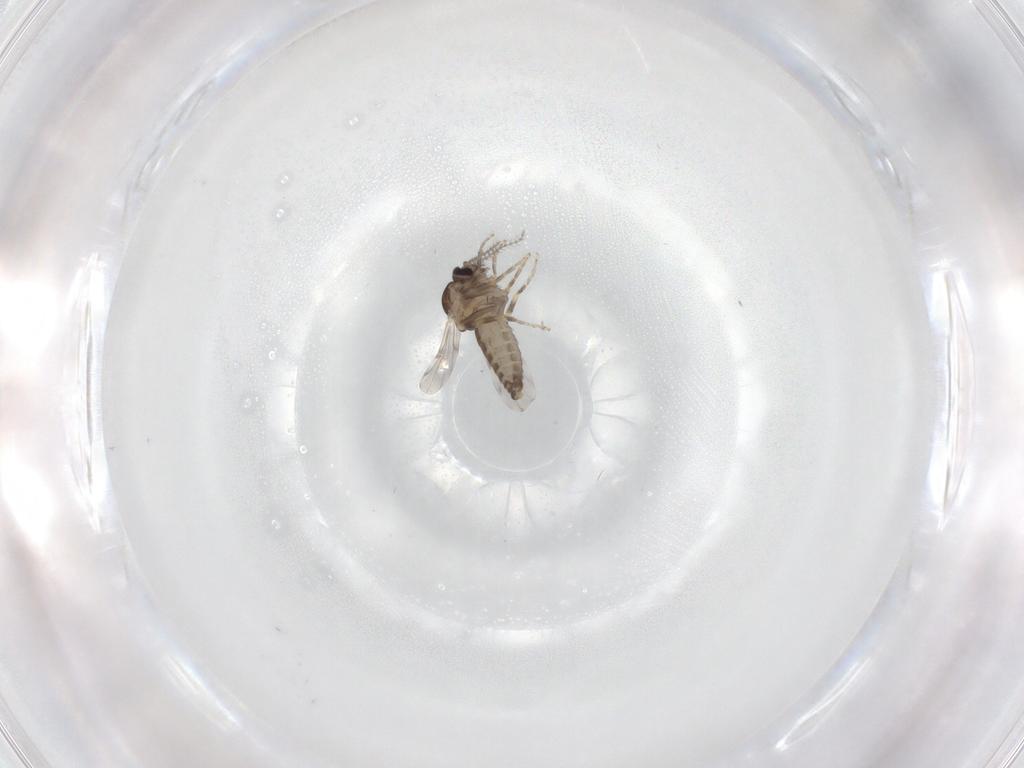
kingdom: Animalia
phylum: Arthropoda
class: Insecta
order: Diptera
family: Ceratopogonidae
